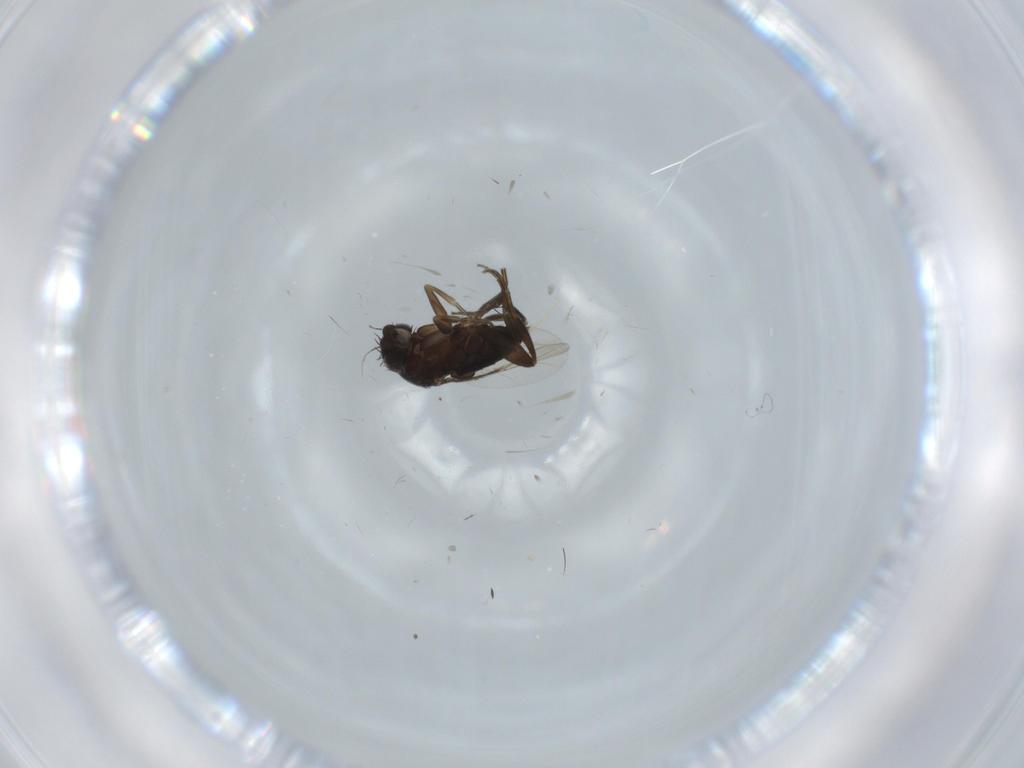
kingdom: Animalia
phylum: Arthropoda
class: Insecta
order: Diptera
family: Phoridae
